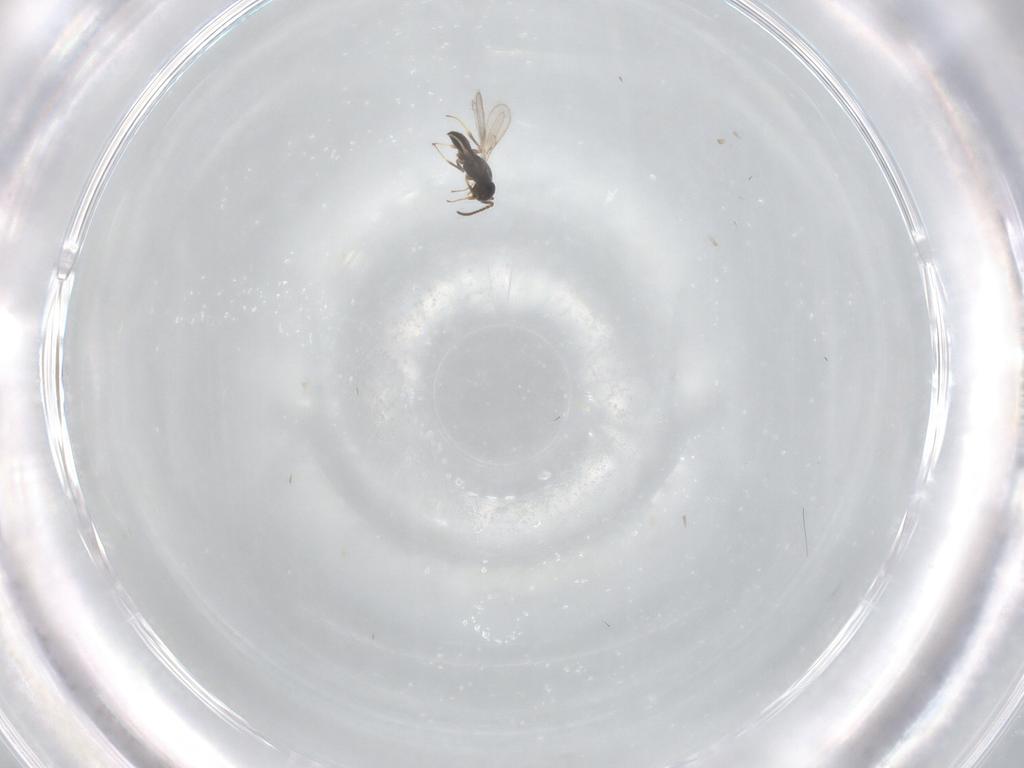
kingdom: Animalia
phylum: Arthropoda
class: Insecta
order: Hymenoptera
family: Scelionidae
